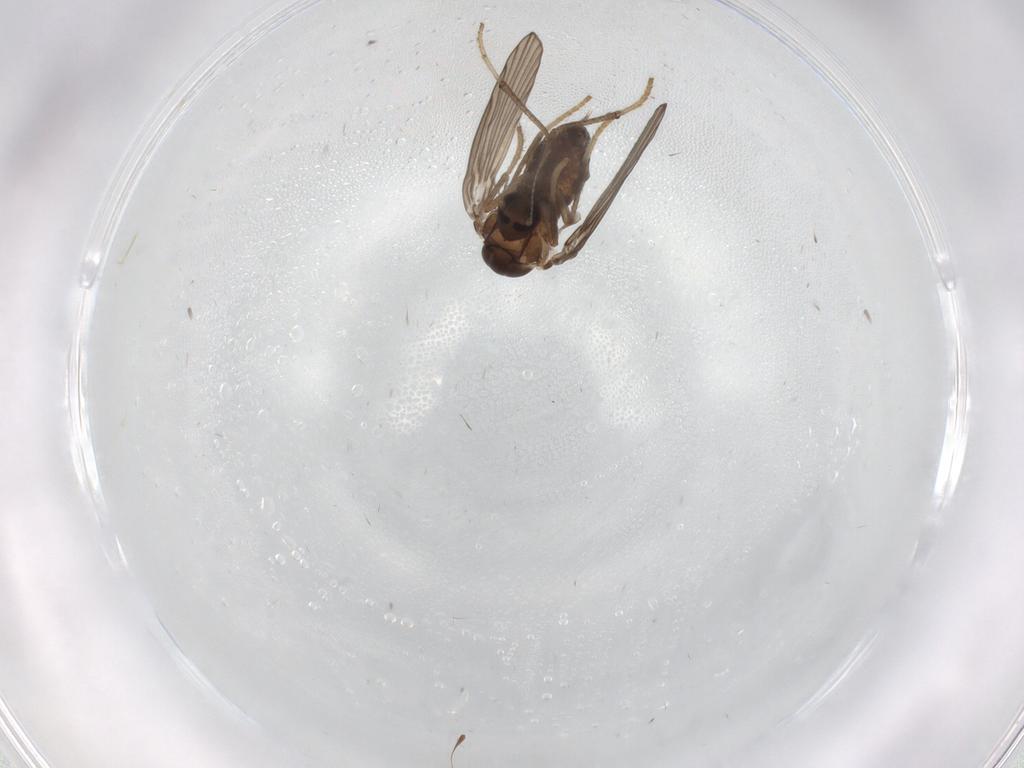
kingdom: Animalia
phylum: Arthropoda
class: Insecta
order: Diptera
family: Psychodidae
